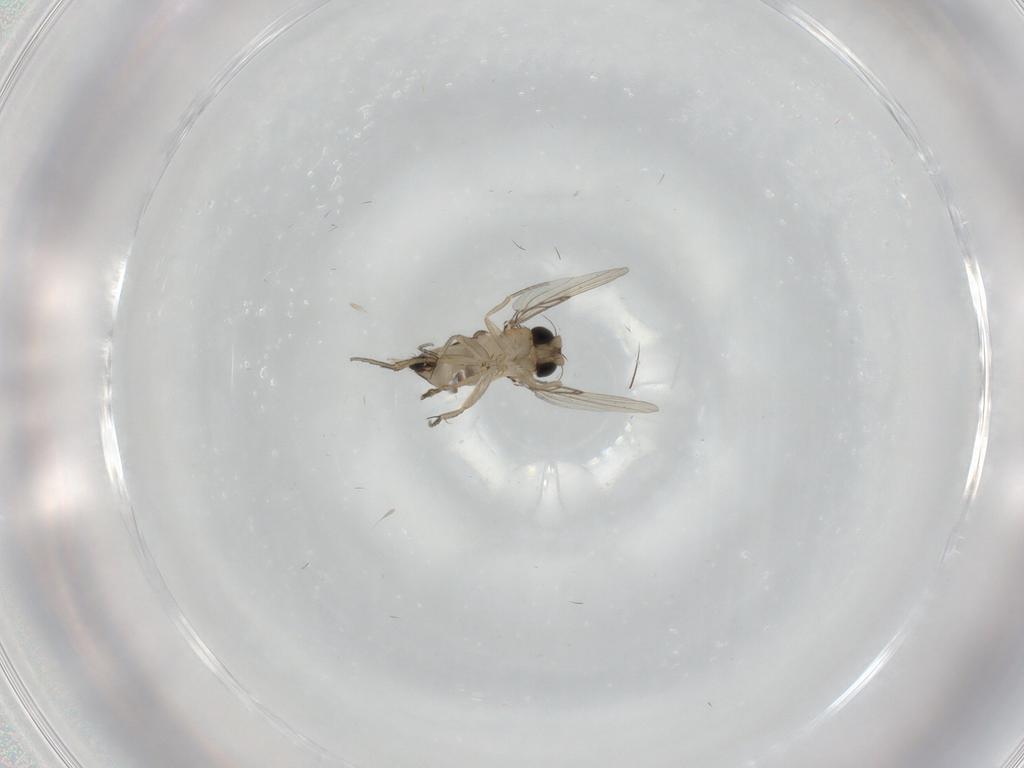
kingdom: Animalia
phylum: Arthropoda
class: Insecta
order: Diptera
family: Phoridae
